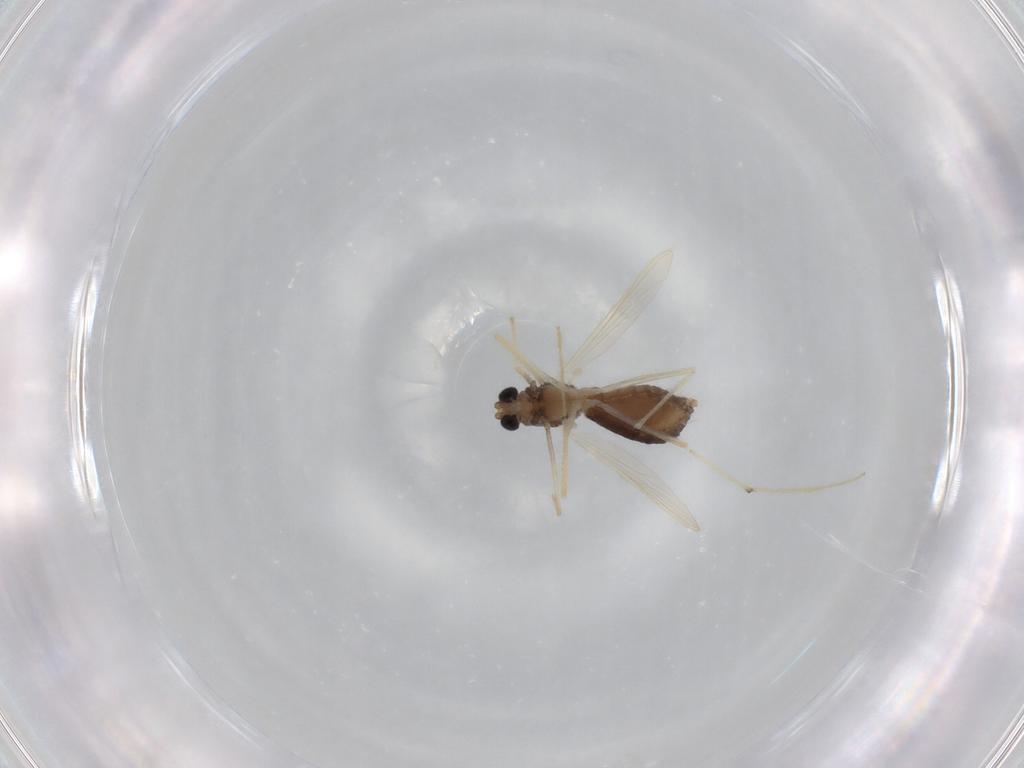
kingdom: Animalia
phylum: Arthropoda
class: Insecta
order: Diptera
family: Chironomidae
